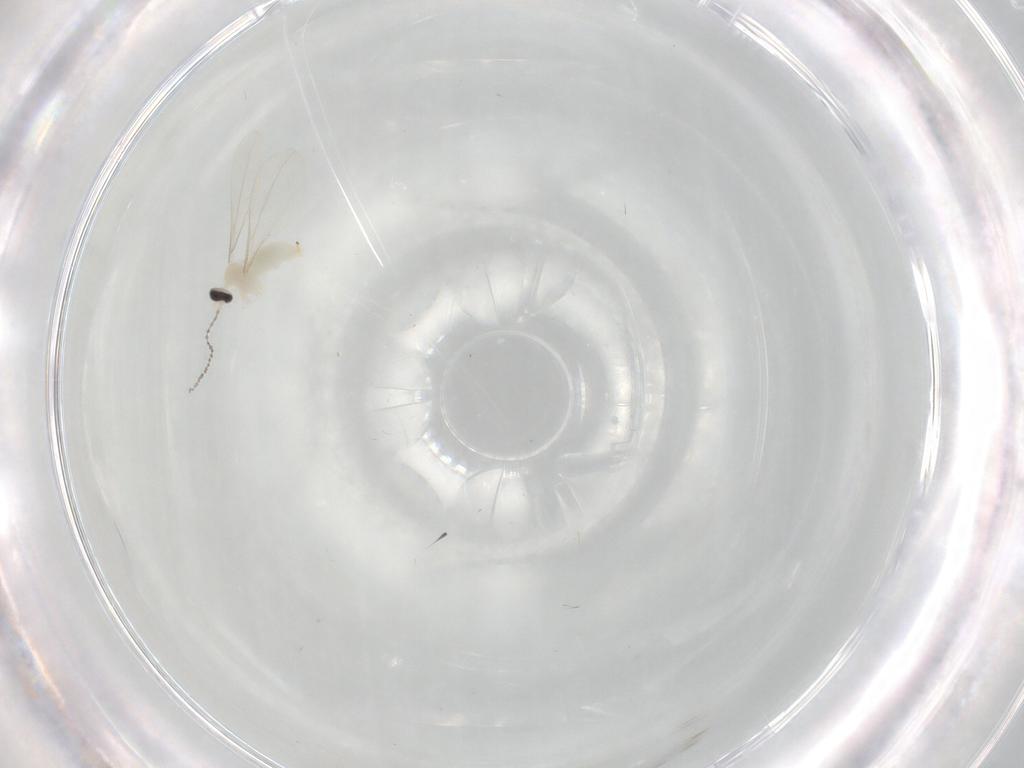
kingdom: Animalia
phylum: Arthropoda
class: Insecta
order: Diptera
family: Cecidomyiidae
